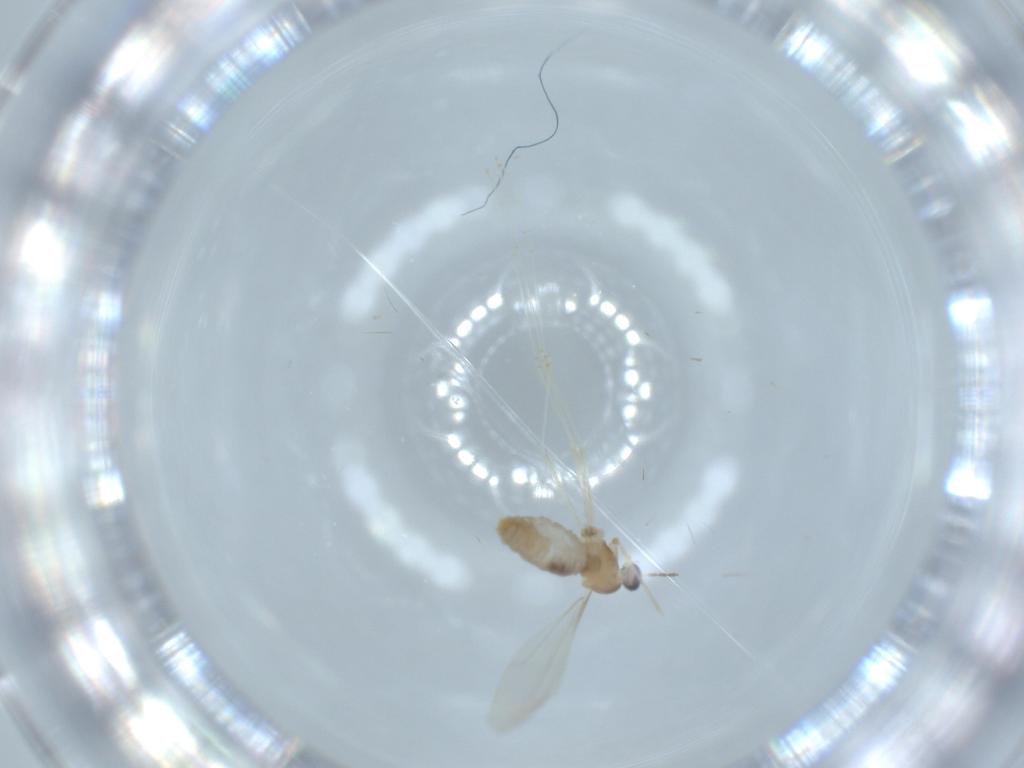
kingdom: Animalia
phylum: Arthropoda
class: Insecta
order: Diptera
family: Cecidomyiidae
